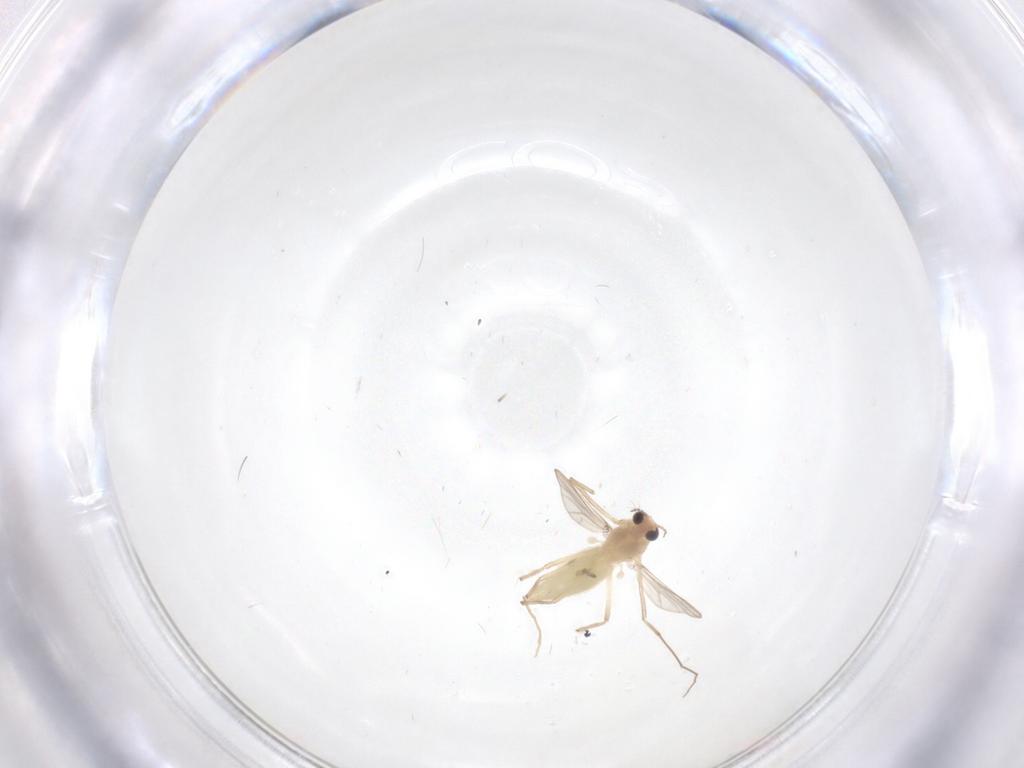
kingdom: Animalia
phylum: Arthropoda
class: Insecta
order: Diptera
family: Chironomidae
